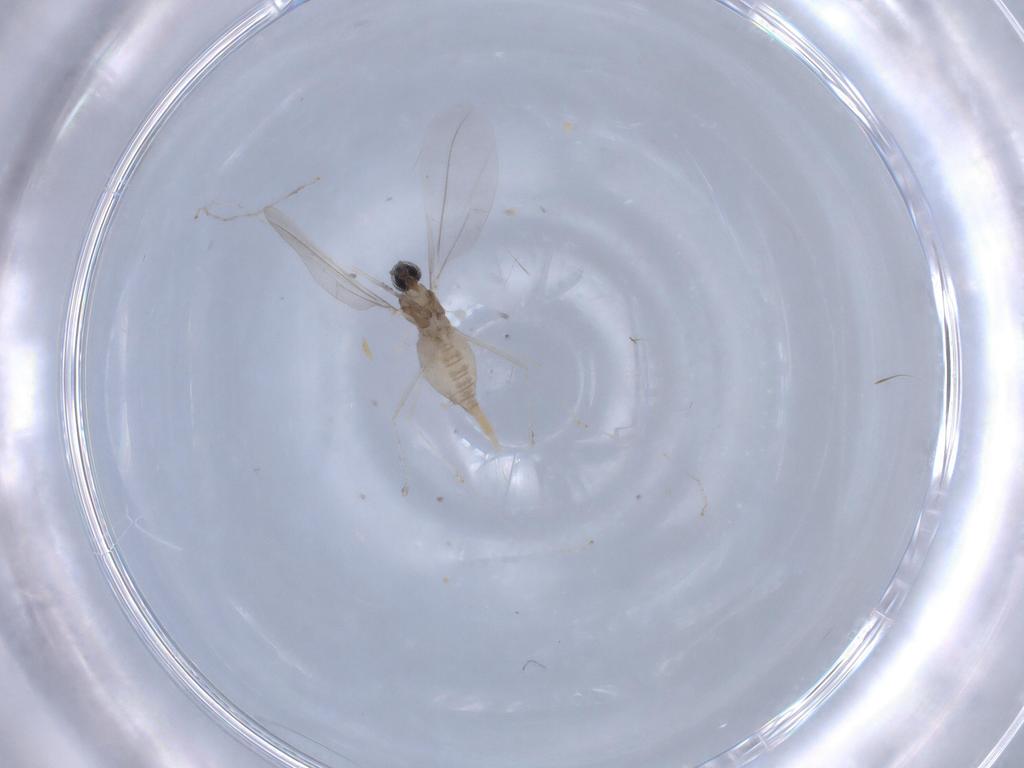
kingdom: Animalia
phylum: Arthropoda
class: Insecta
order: Diptera
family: Cecidomyiidae
